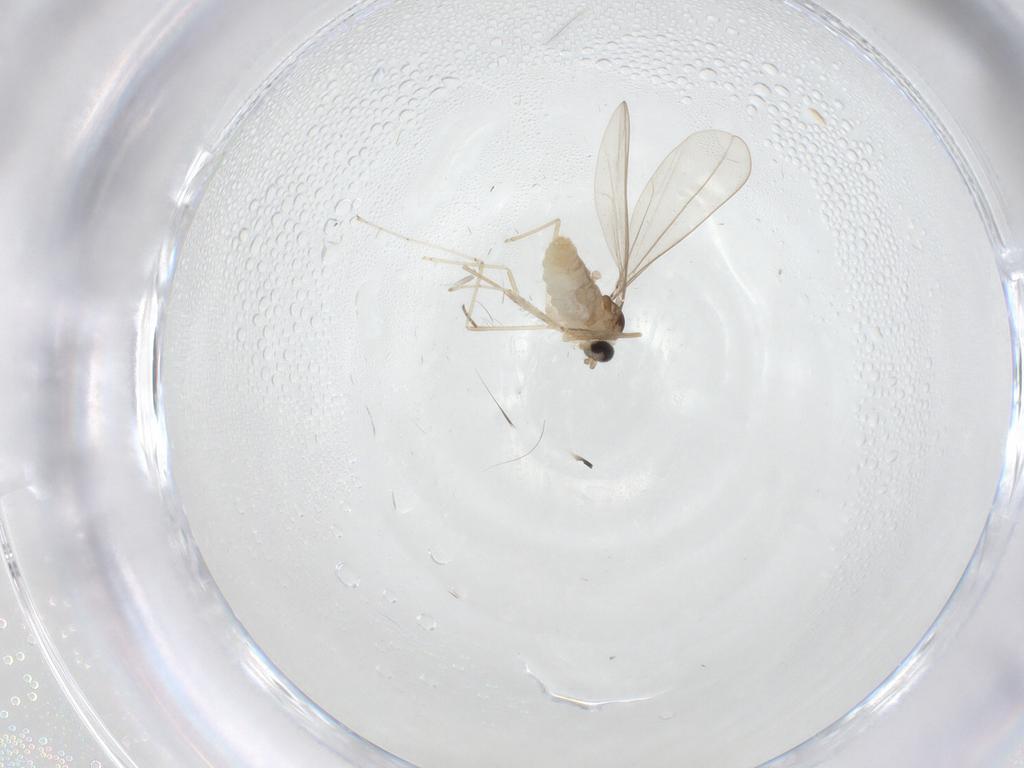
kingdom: Animalia
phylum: Arthropoda
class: Insecta
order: Diptera
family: Cecidomyiidae
